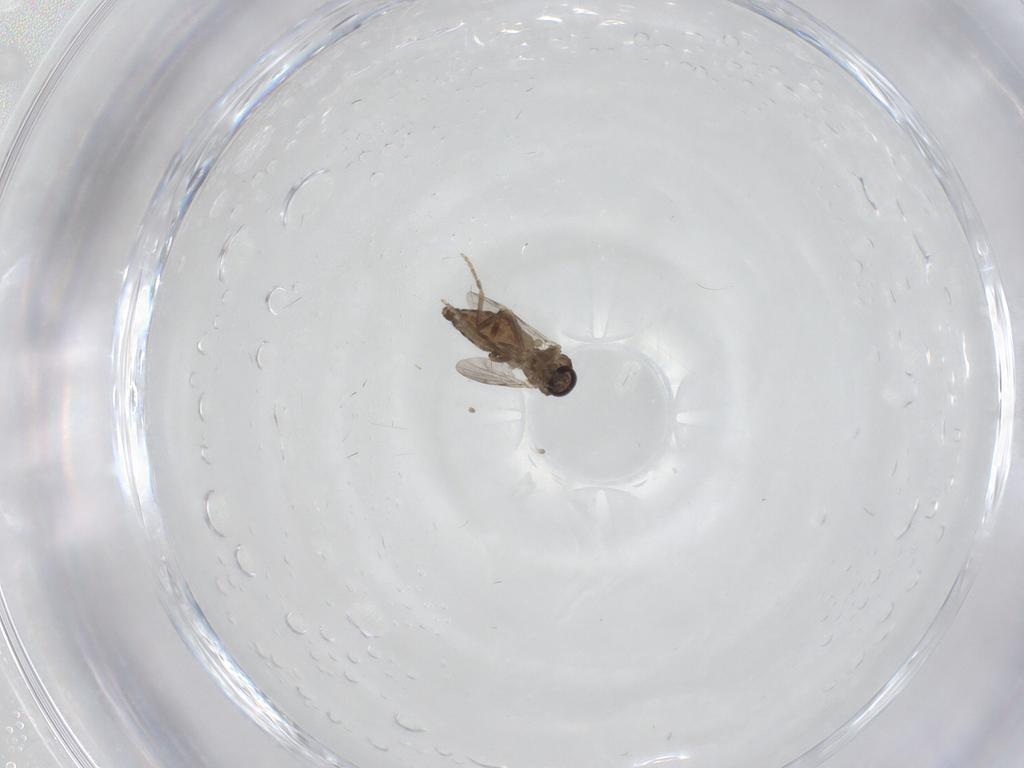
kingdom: Animalia
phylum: Arthropoda
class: Insecta
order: Diptera
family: Ceratopogonidae
